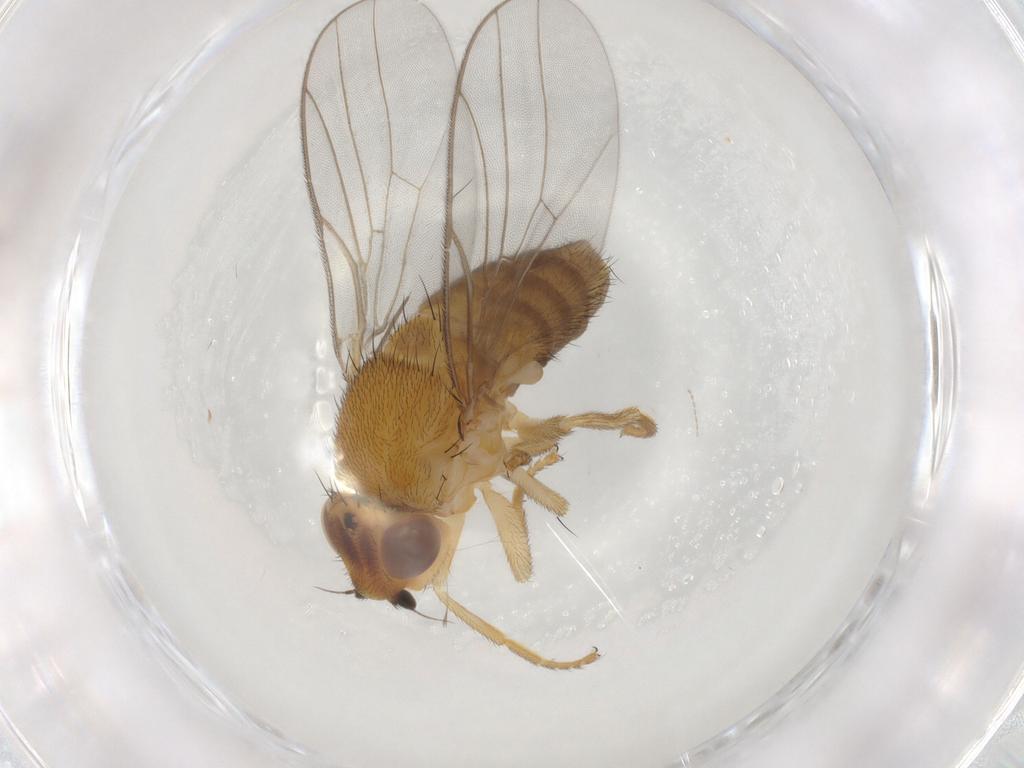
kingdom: Animalia
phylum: Arthropoda
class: Insecta
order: Diptera
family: Chloropidae
